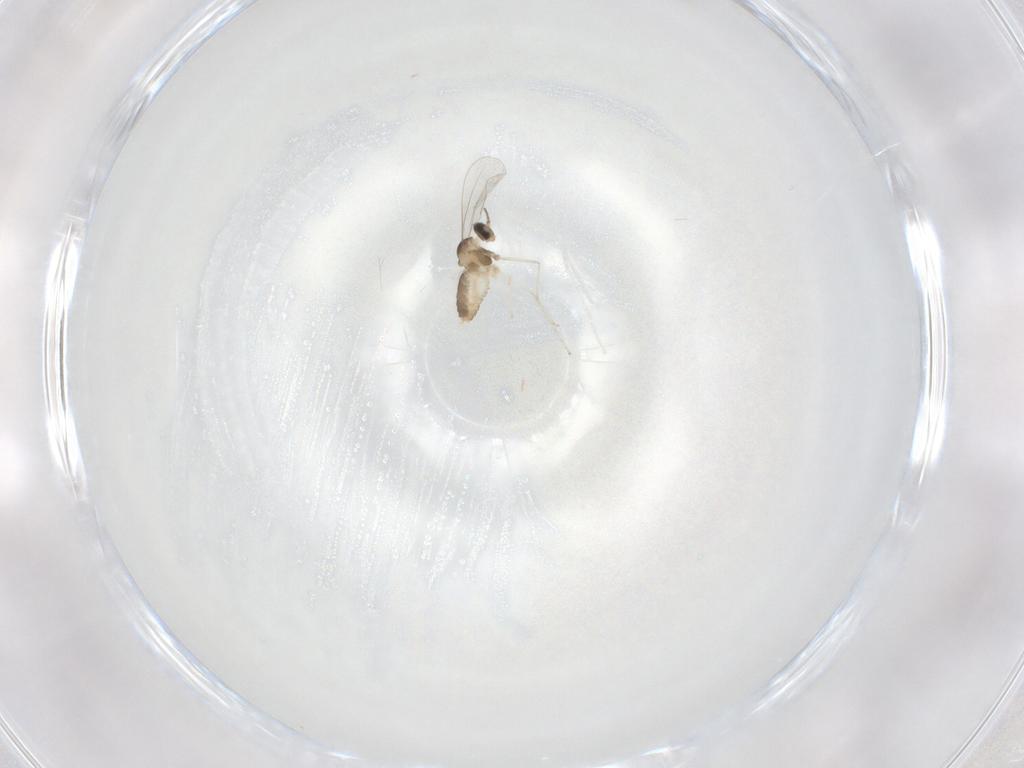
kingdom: Animalia
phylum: Arthropoda
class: Insecta
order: Diptera
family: Cecidomyiidae
